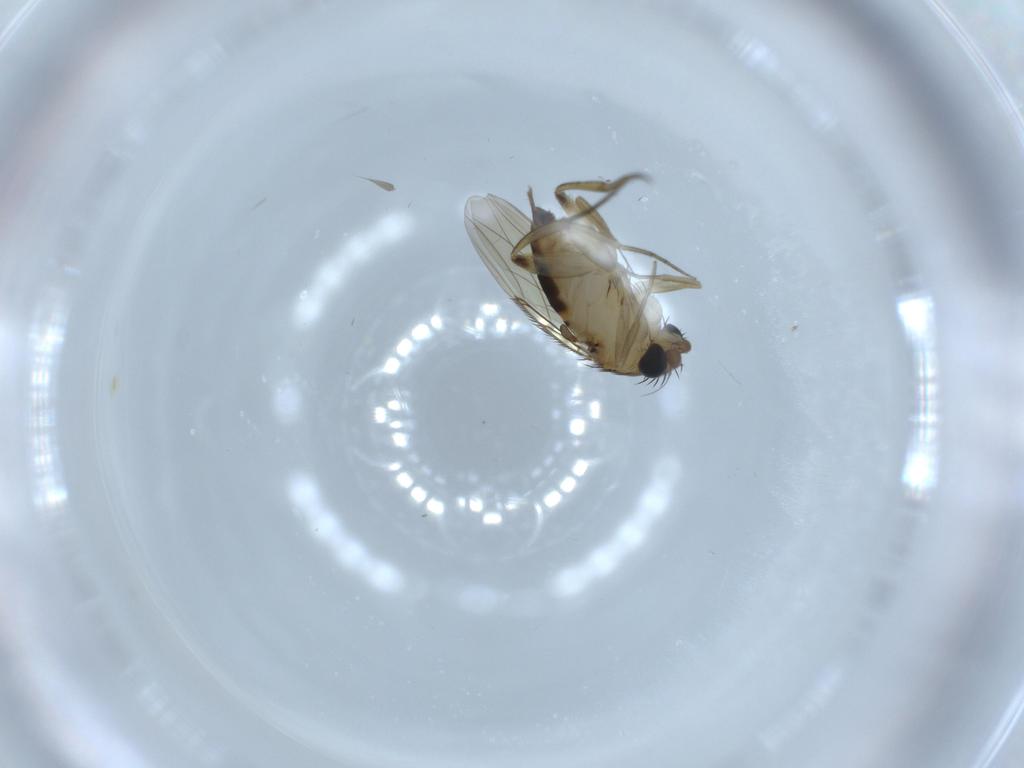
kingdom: Animalia
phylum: Arthropoda
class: Insecta
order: Diptera
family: Phoridae
